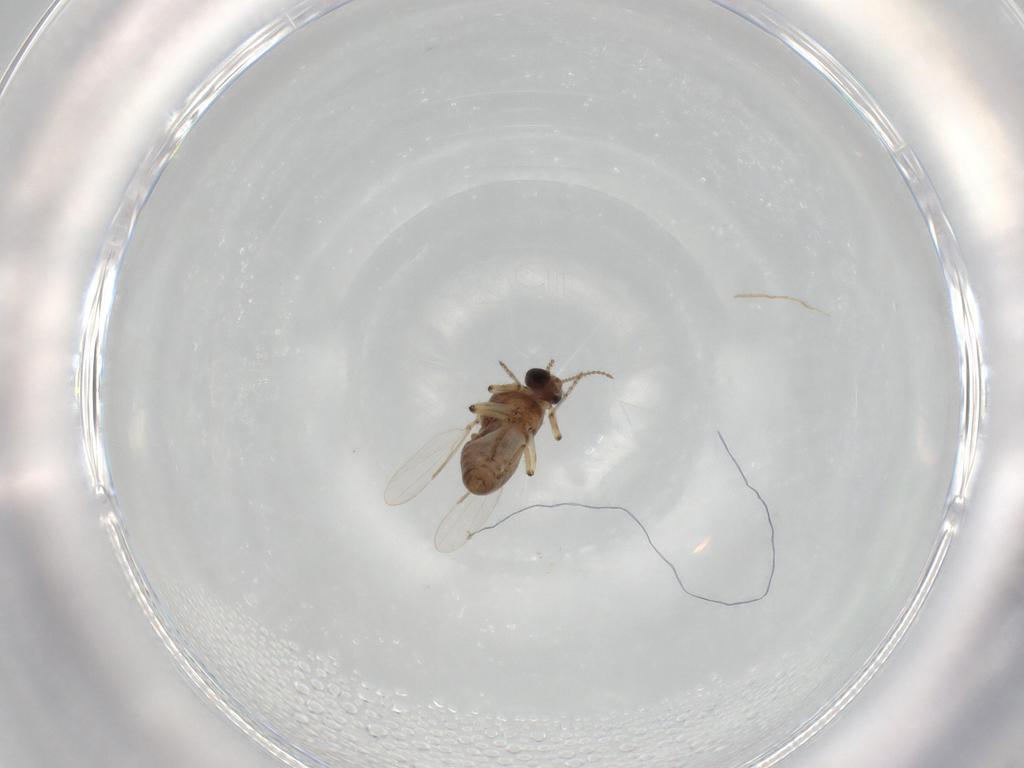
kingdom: Animalia
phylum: Arthropoda
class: Insecta
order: Diptera
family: Ceratopogonidae
